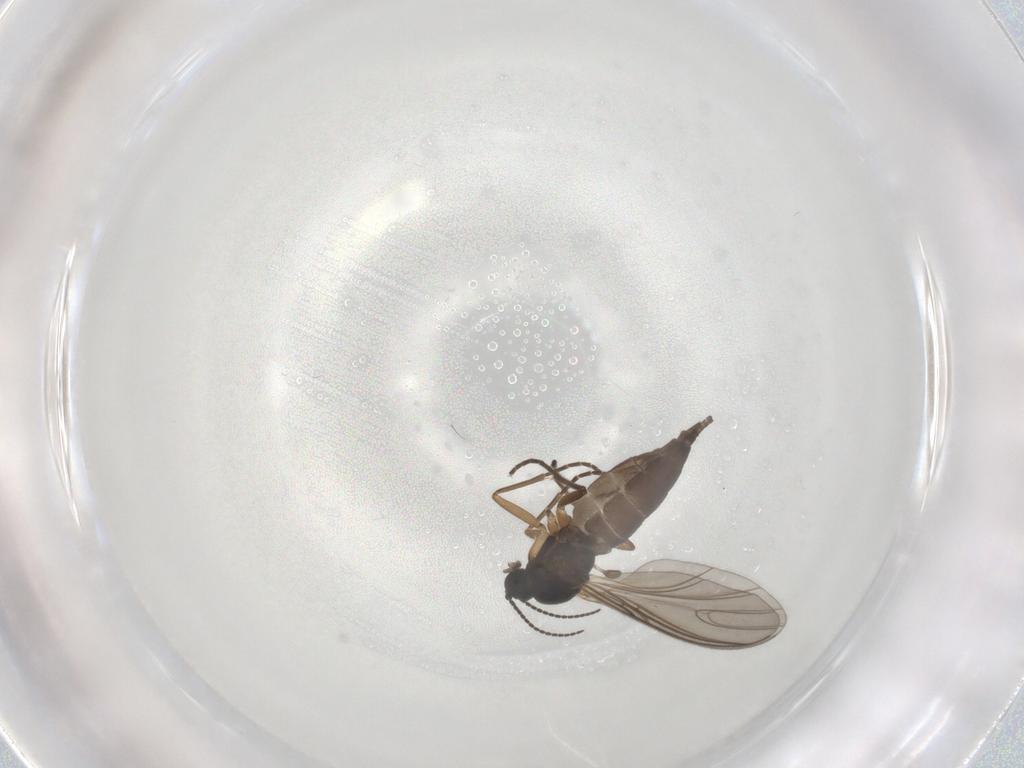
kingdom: Animalia
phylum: Arthropoda
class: Insecta
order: Diptera
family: Sciaridae
